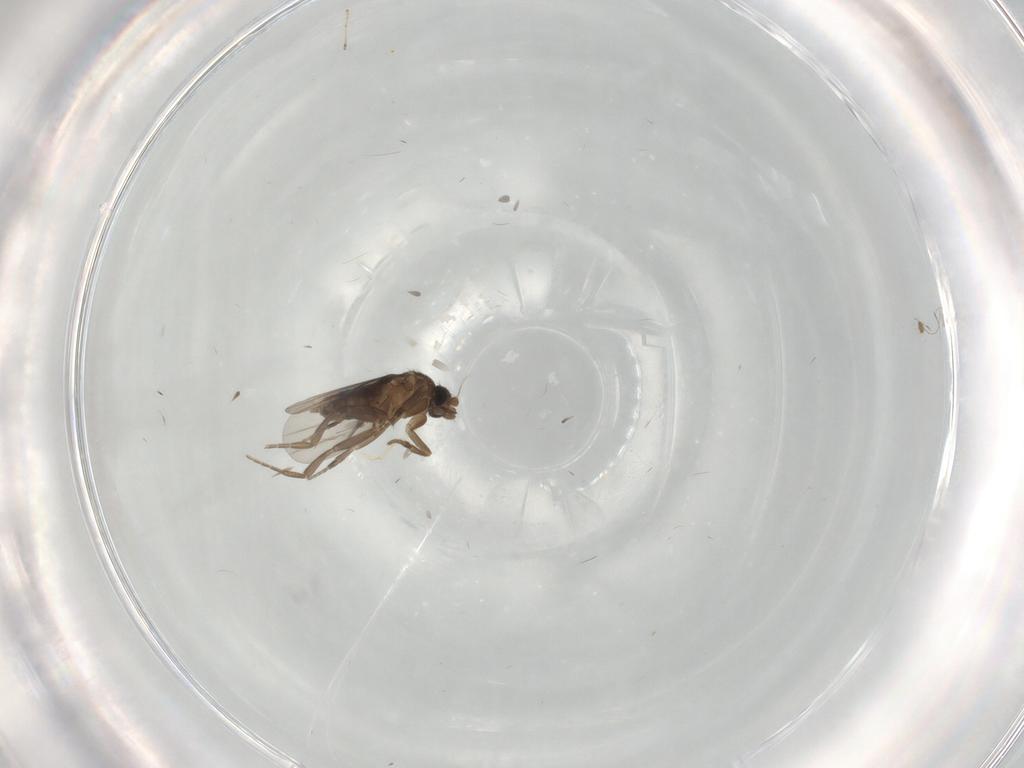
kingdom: Animalia
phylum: Arthropoda
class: Insecta
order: Diptera
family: Phoridae
